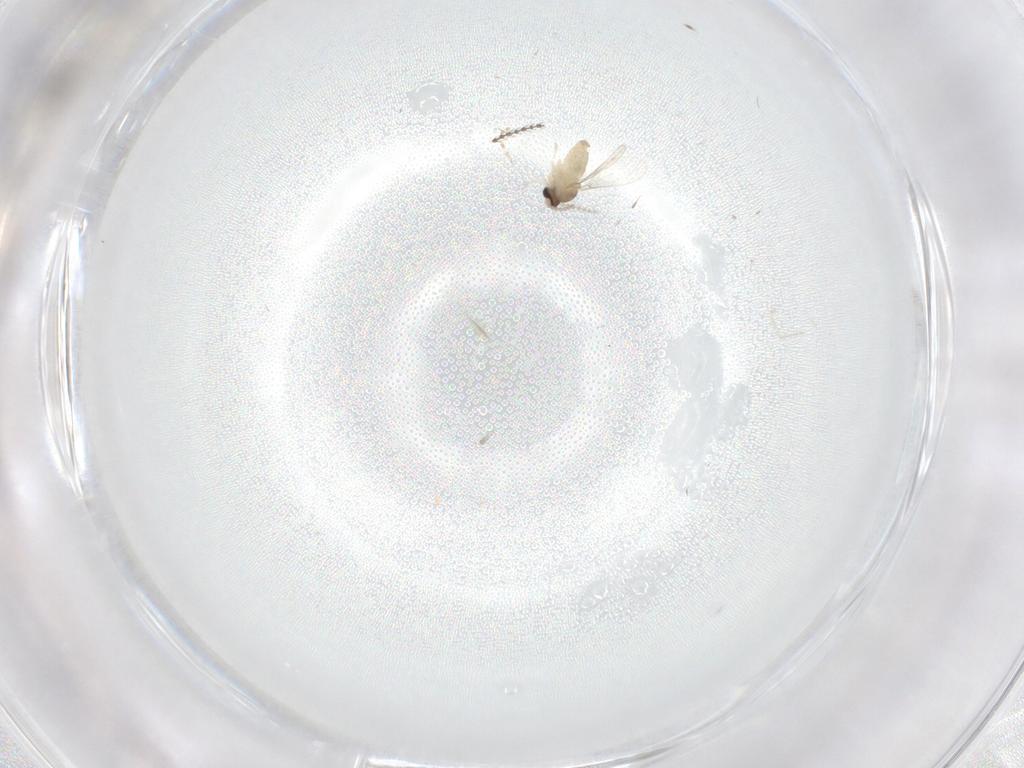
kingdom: Animalia
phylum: Arthropoda
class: Insecta
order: Diptera
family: Cecidomyiidae
